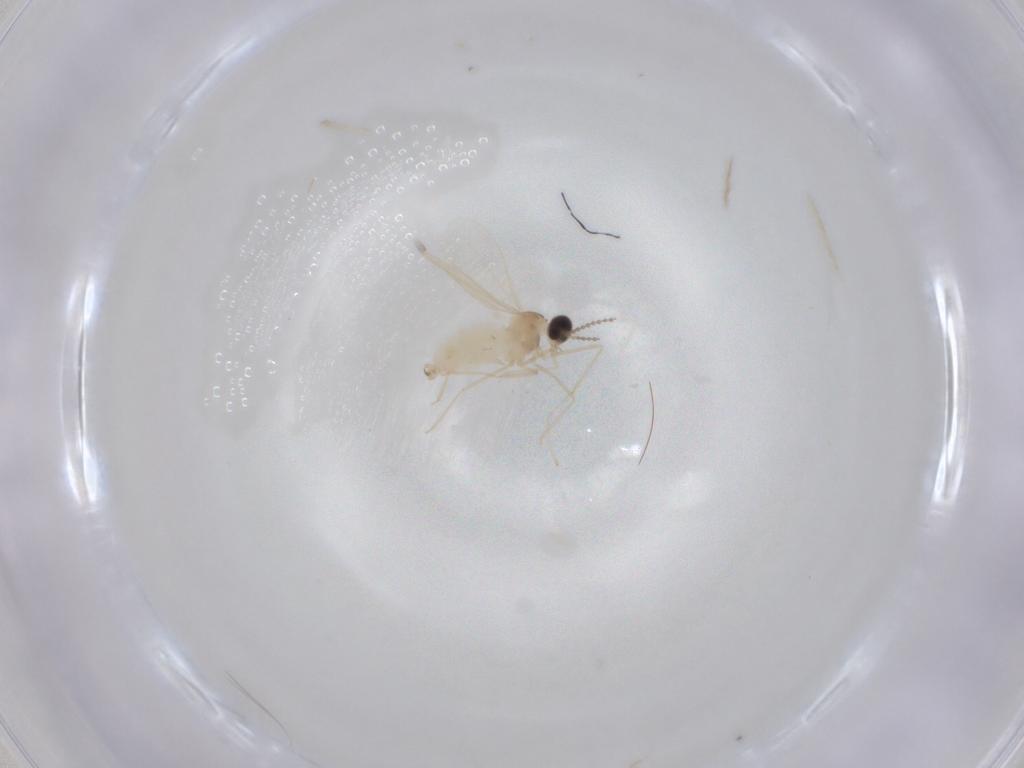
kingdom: Animalia
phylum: Arthropoda
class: Insecta
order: Diptera
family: Cecidomyiidae
